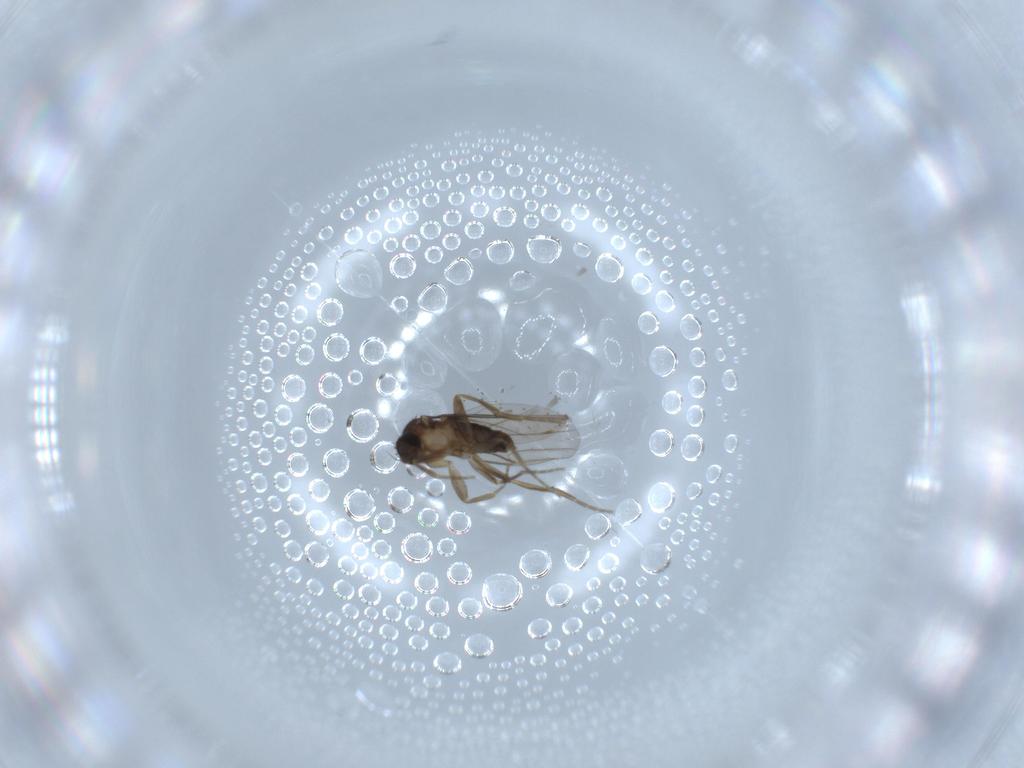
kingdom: Animalia
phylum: Arthropoda
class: Insecta
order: Diptera
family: Phoridae
